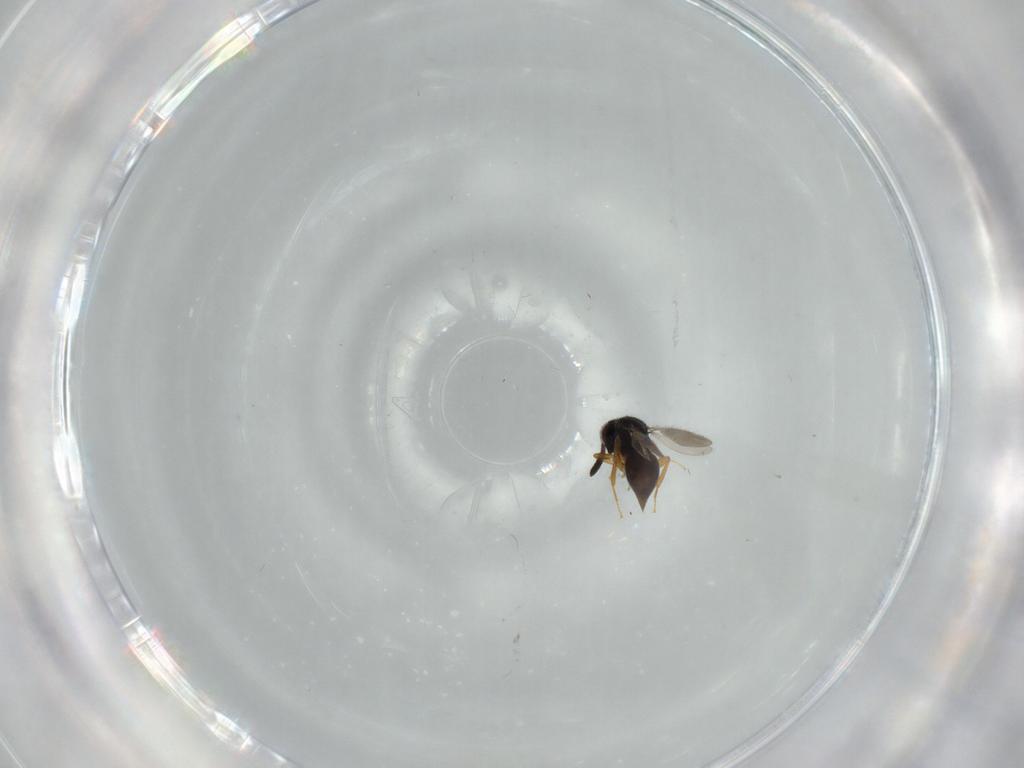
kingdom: Animalia
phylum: Arthropoda
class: Insecta
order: Hymenoptera
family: Ceraphronidae
